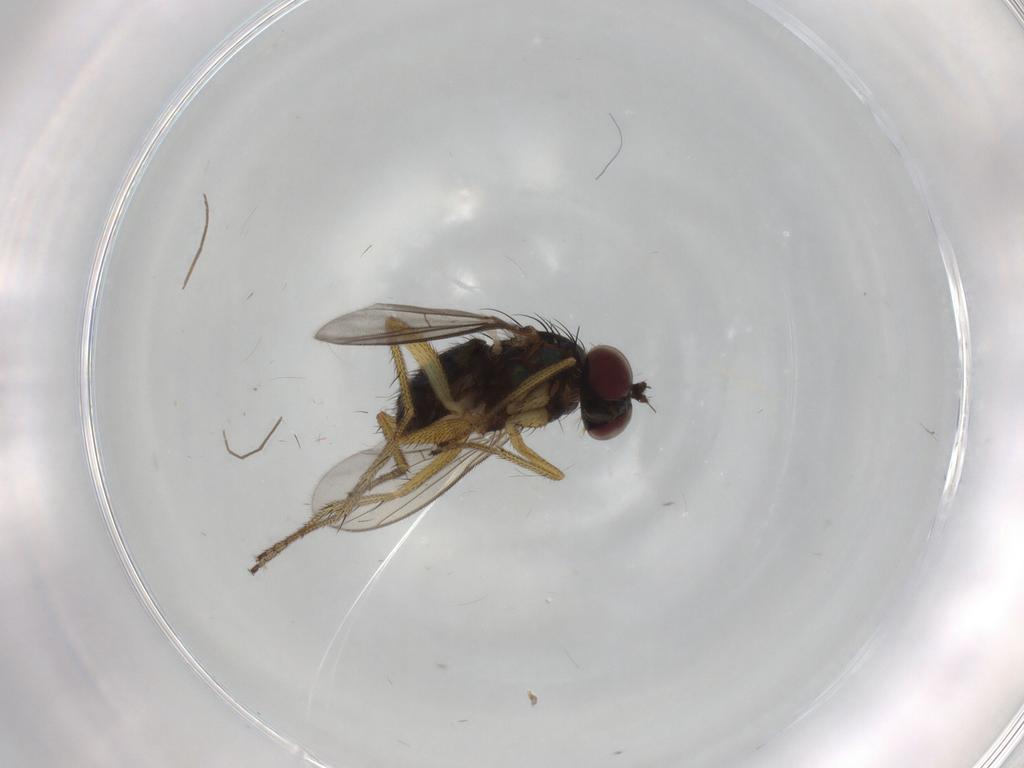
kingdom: Animalia
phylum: Arthropoda
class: Insecta
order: Diptera
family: Sciaridae
